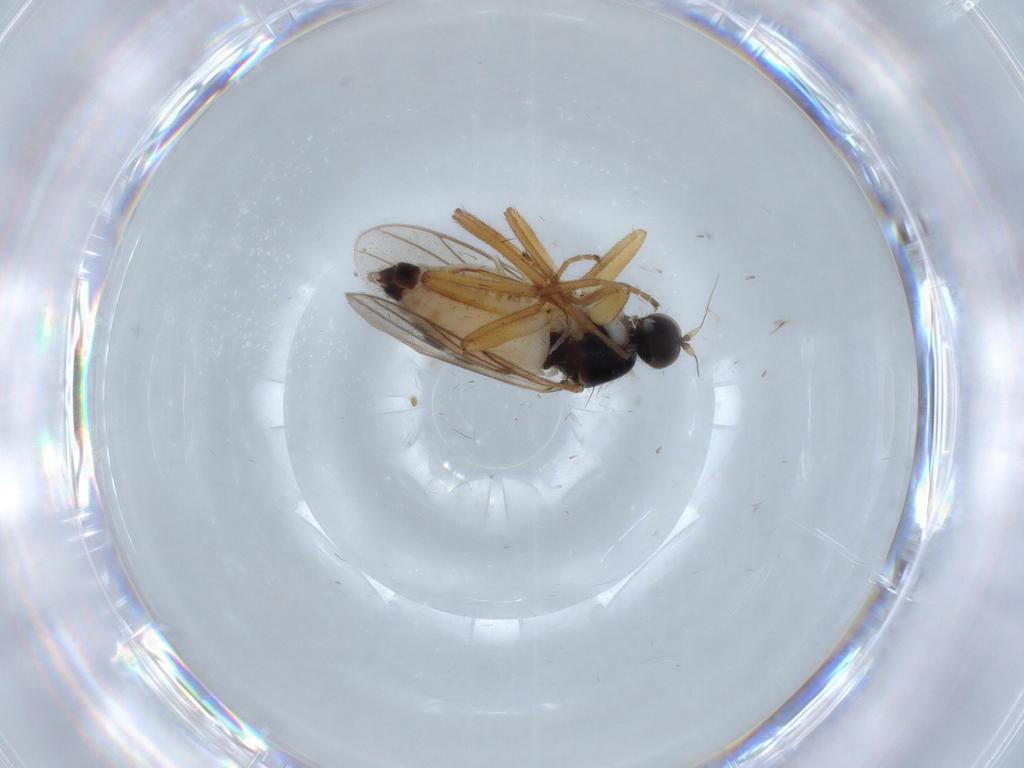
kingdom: Animalia
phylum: Arthropoda
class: Insecta
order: Diptera
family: Hybotidae
